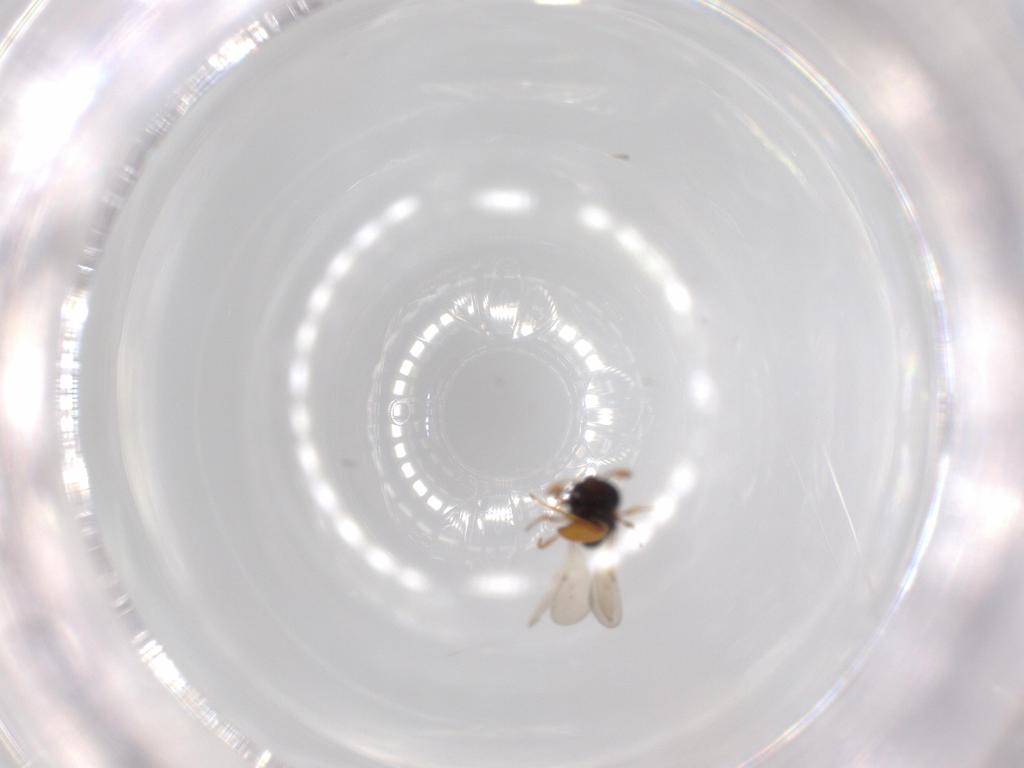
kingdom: Animalia
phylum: Arthropoda
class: Insecta
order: Hymenoptera
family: Scelionidae
